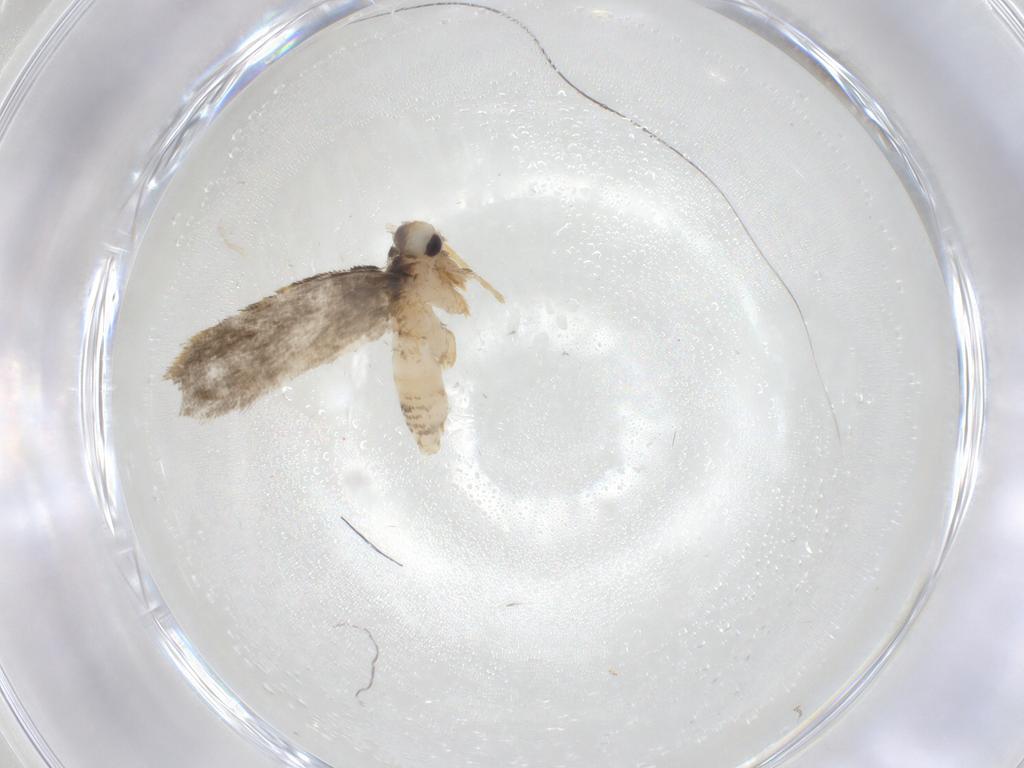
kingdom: Animalia
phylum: Arthropoda
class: Insecta
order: Lepidoptera
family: Psychidae
